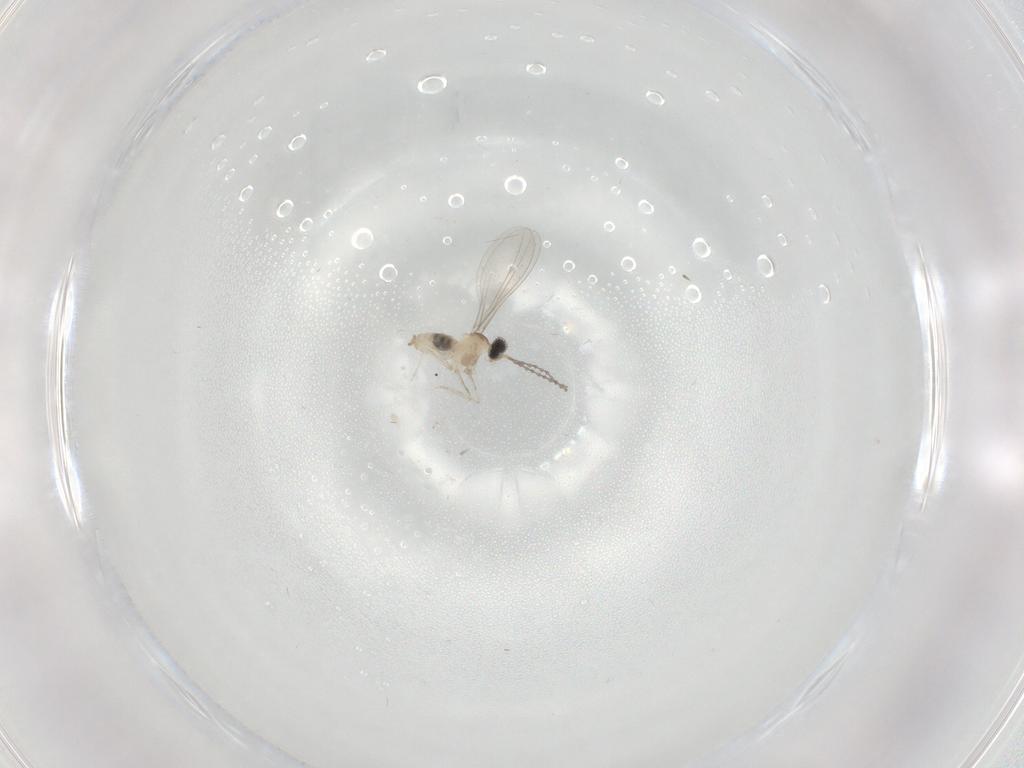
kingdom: Animalia
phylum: Arthropoda
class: Insecta
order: Diptera
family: Cecidomyiidae
